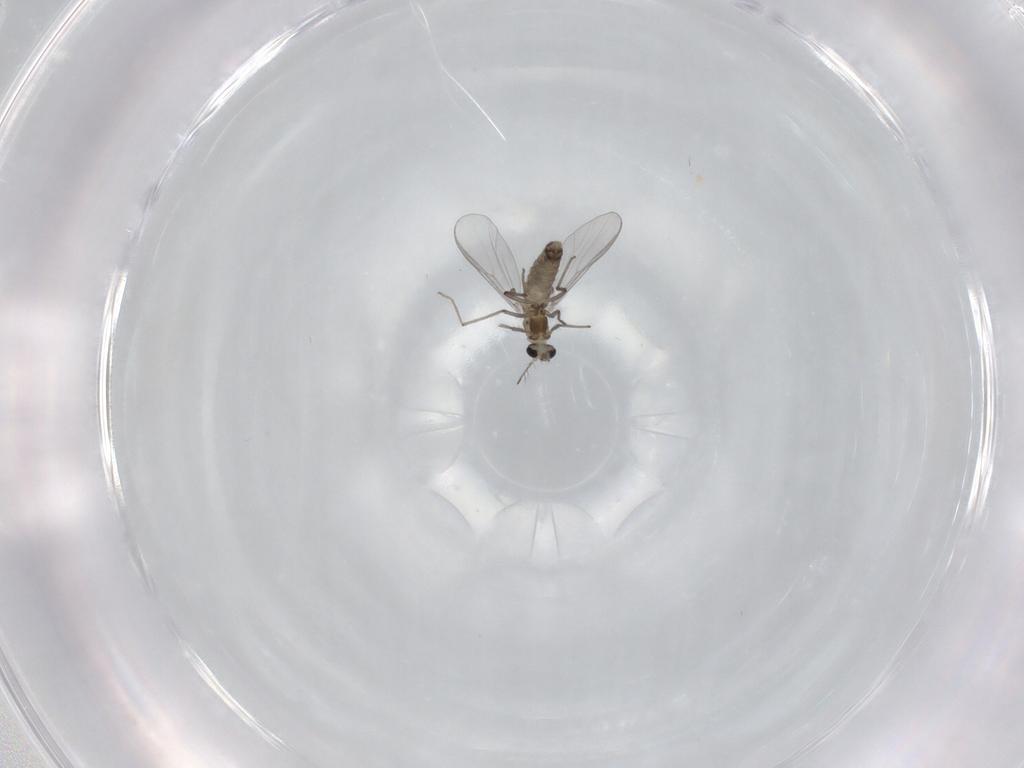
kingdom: Animalia
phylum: Arthropoda
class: Insecta
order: Diptera
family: Chironomidae
